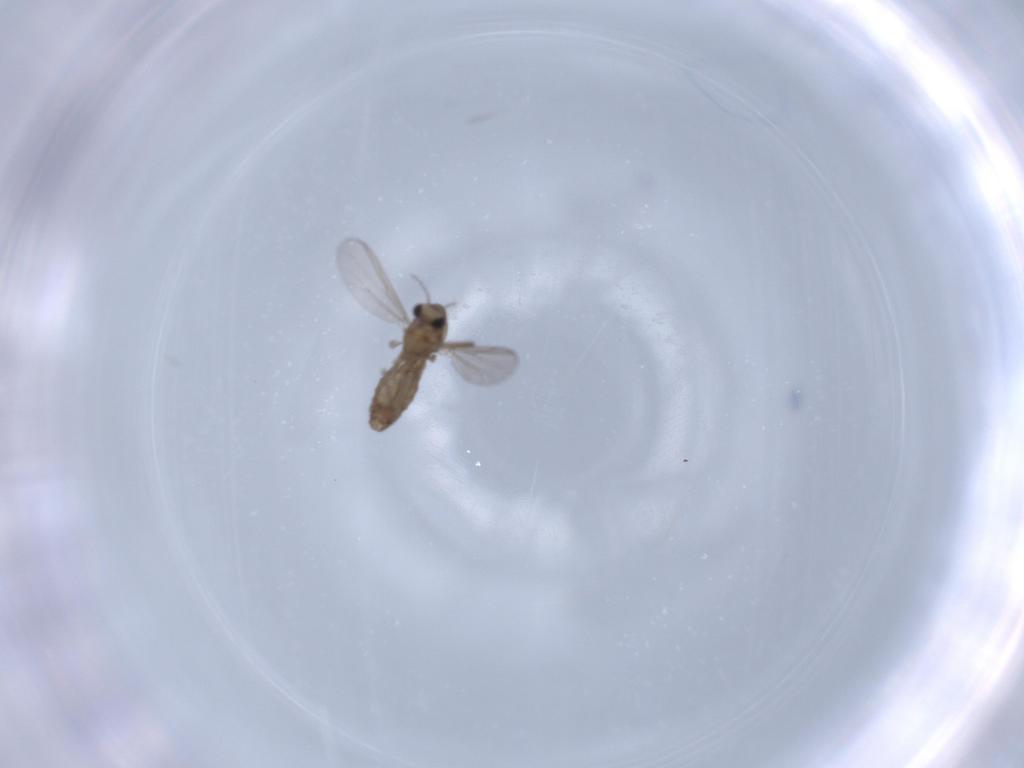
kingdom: Animalia
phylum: Arthropoda
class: Insecta
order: Diptera
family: Chironomidae
